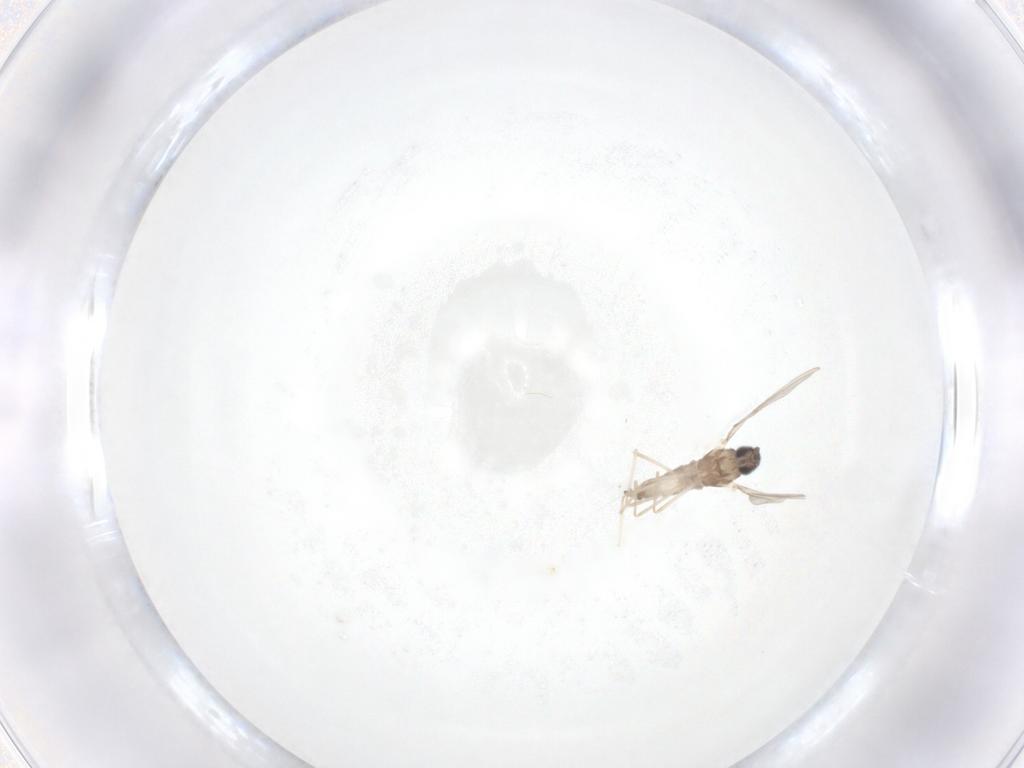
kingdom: Animalia
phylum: Arthropoda
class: Insecta
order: Diptera
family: Cecidomyiidae
